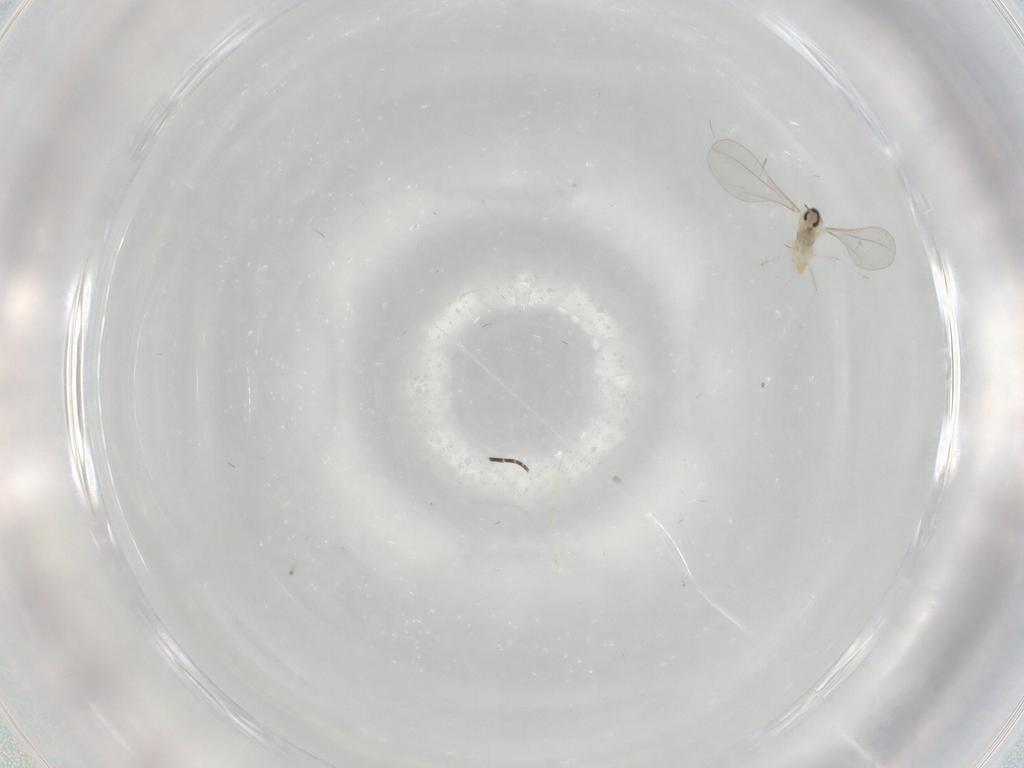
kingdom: Animalia
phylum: Arthropoda
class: Insecta
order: Diptera
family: Cecidomyiidae
